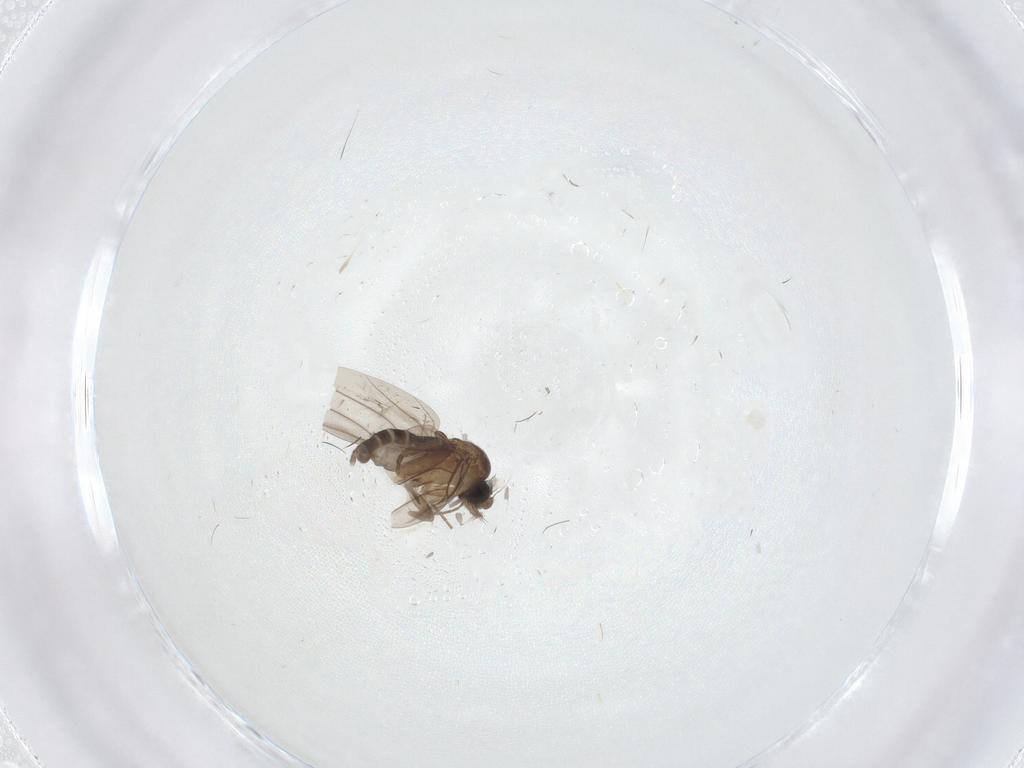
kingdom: Animalia
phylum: Arthropoda
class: Insecta
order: Diptera
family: Phoridae
